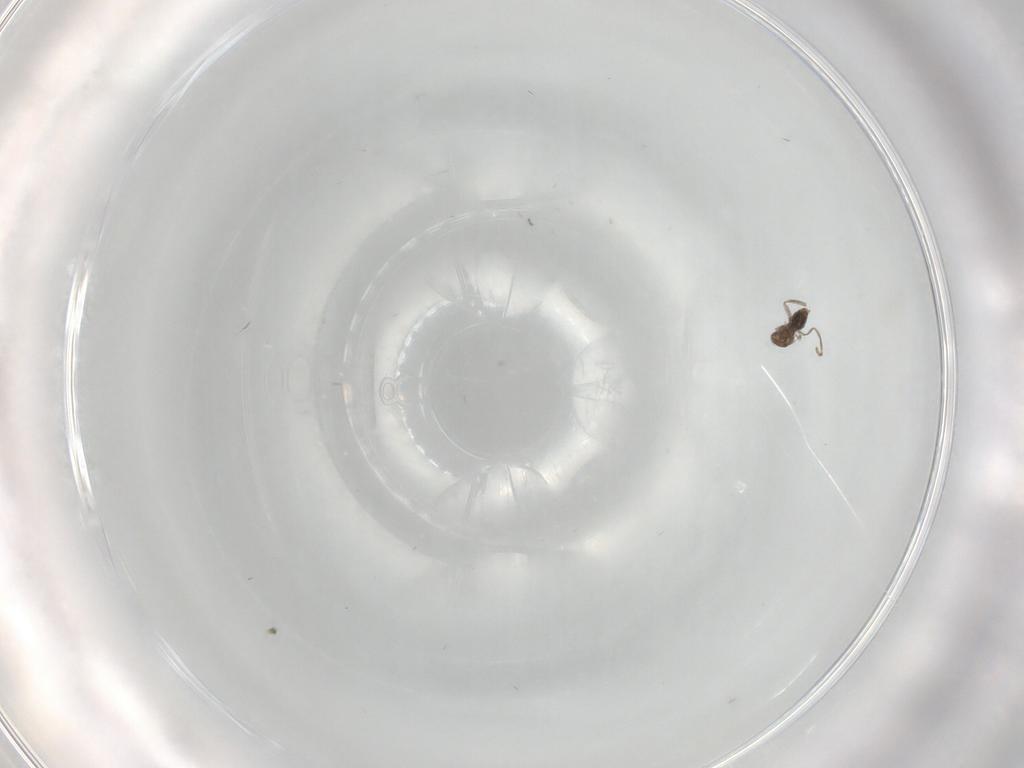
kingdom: Animalia
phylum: Arthropoda
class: Insecta
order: Diptera
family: Cecidomyiidae
